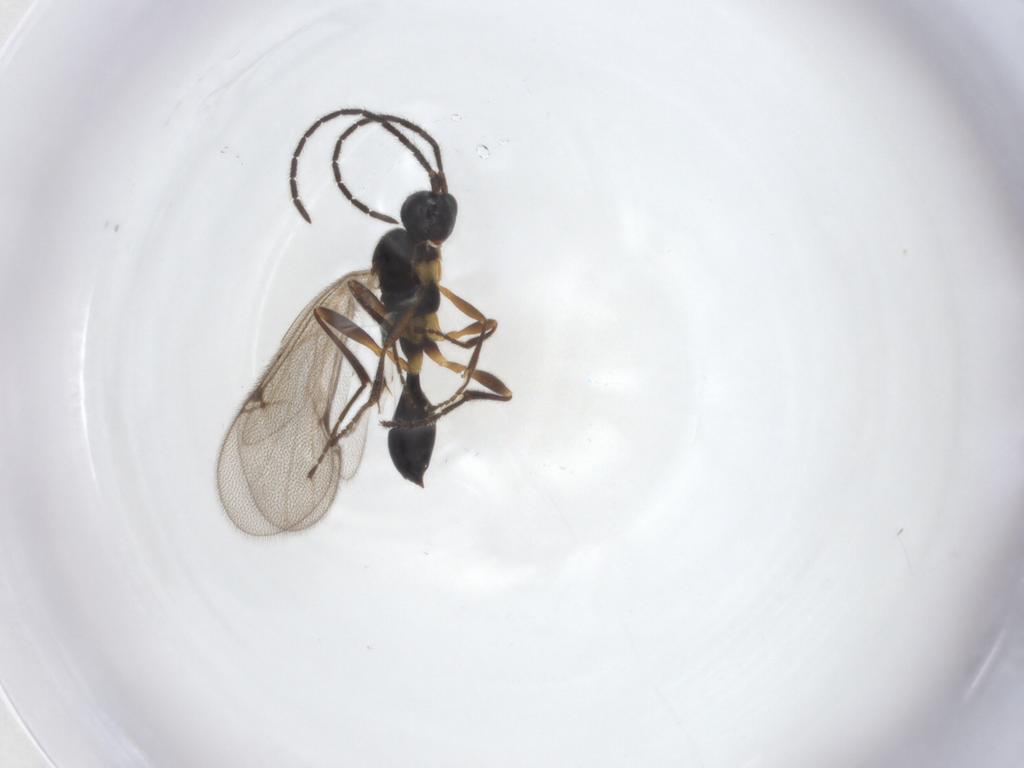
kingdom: Animalia
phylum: Arthropoda
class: Insecta
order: Hymenoptera
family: Proctotrupidae
